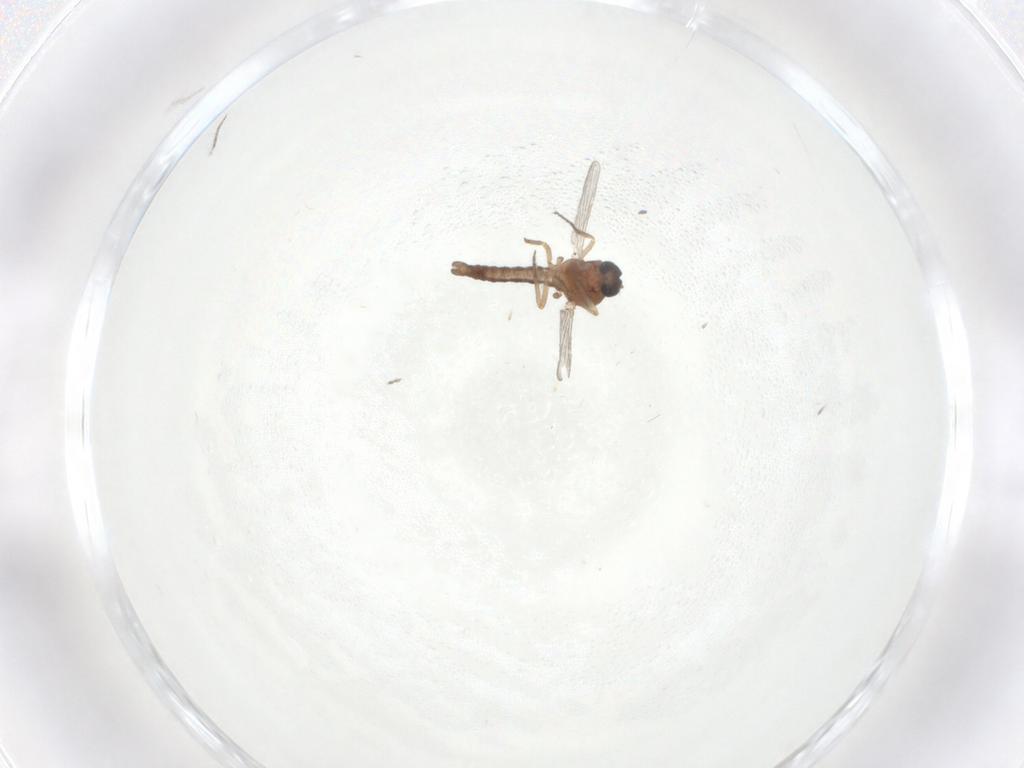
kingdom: Animalia
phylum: Arthropoda
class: Insecta
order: Diptera
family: Ceratopogonidae
